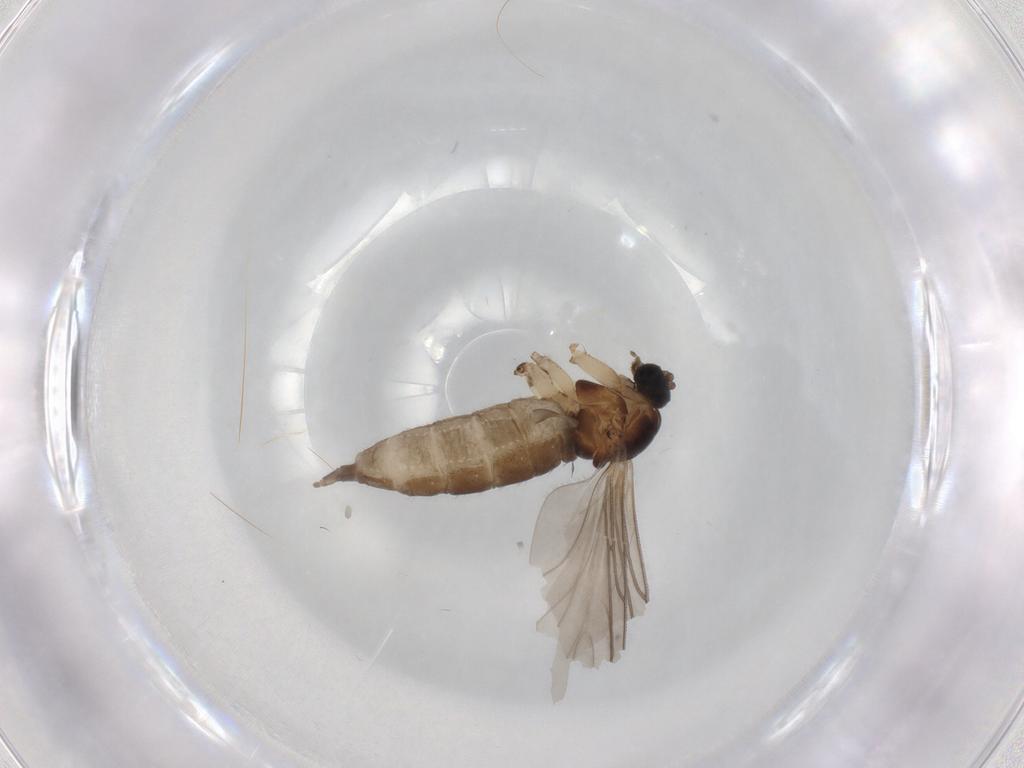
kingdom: Animalia
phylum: Arthropoda
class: Insecta
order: Diptera
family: Sciaridae
